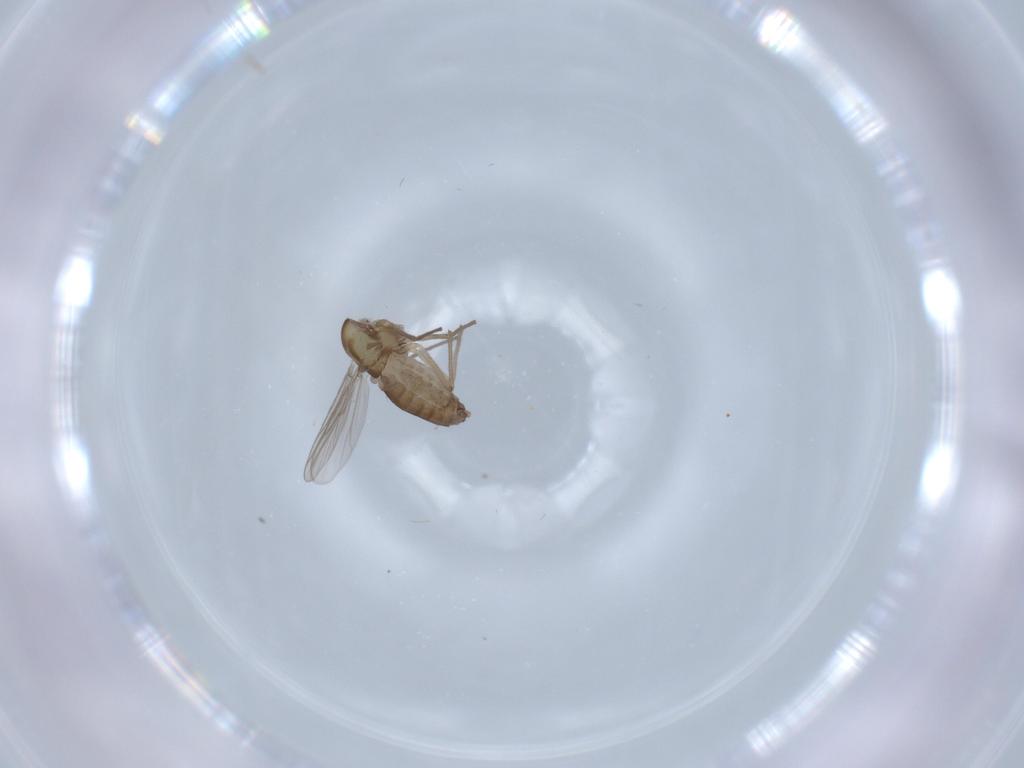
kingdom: Animalia
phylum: Arthropoda
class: Insecta
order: Diptera
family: Chironomidae
